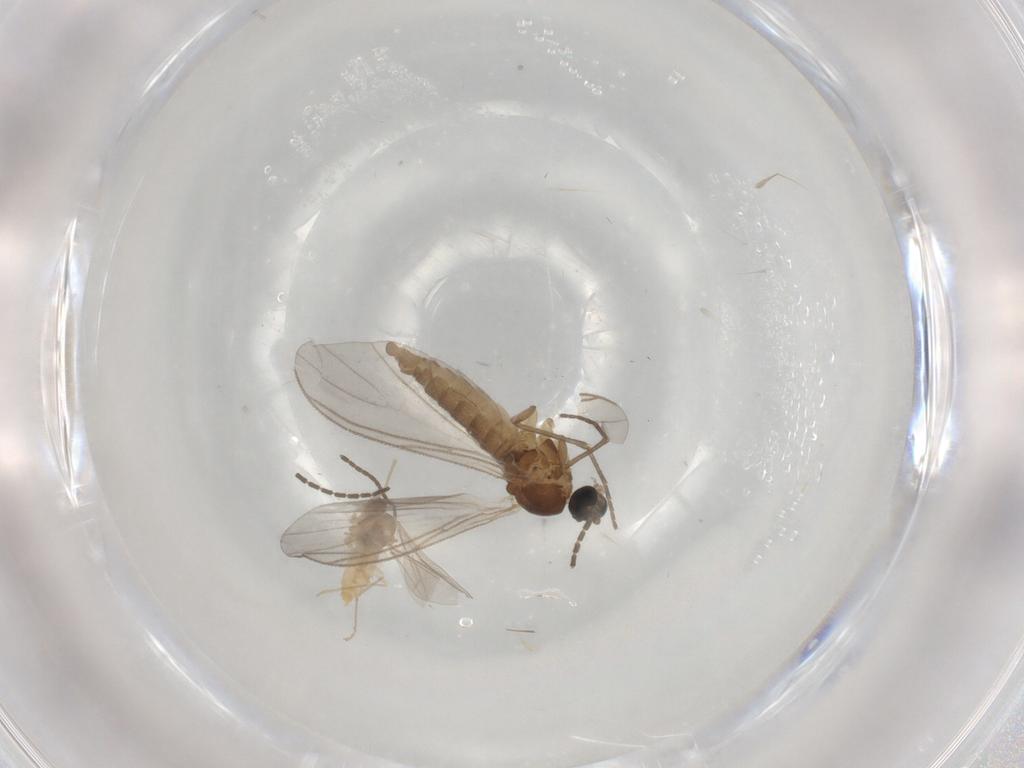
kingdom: Animalia
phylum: Arthropoda
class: Insecta
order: Diptera
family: Sciaridae
